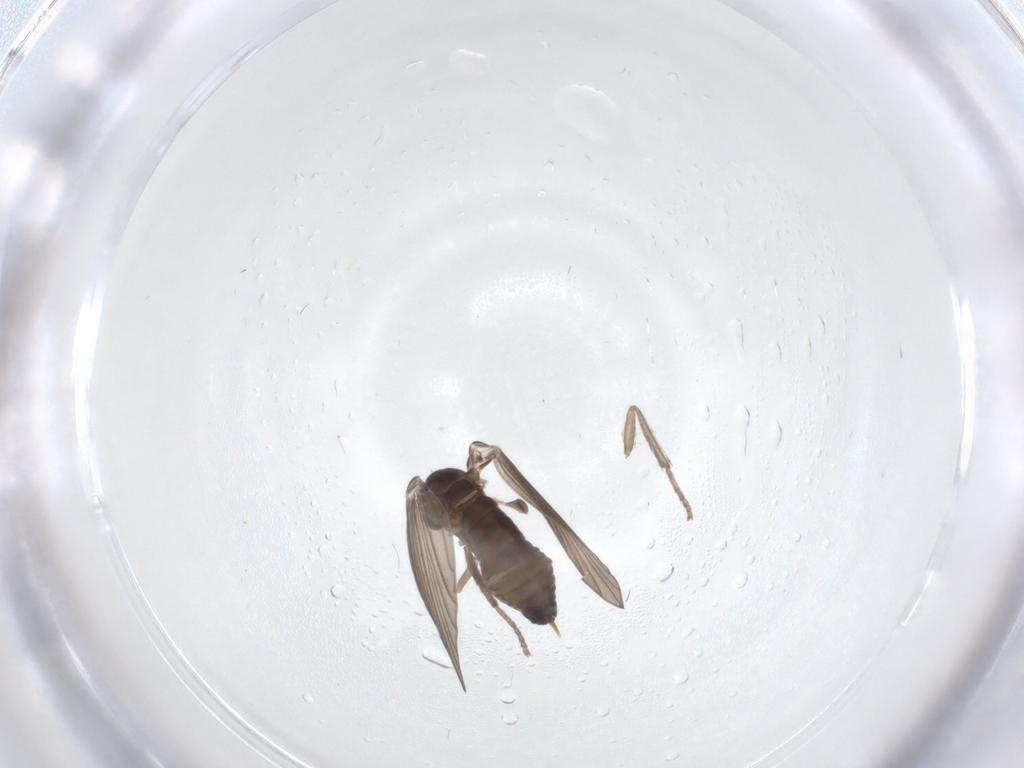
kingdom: Animalia
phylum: Arthropoda
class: Insecta
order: Diptera
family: Psychodidae
